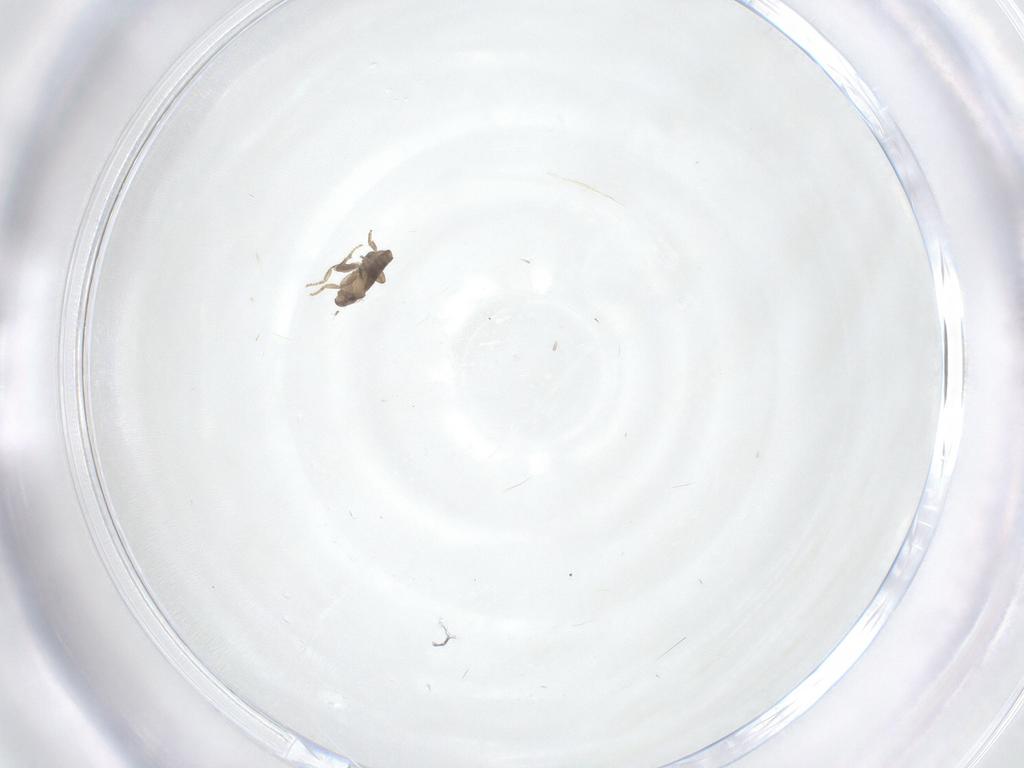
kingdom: Animalia
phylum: Arthropoda
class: Insecta
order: Diptera
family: Phoridae
